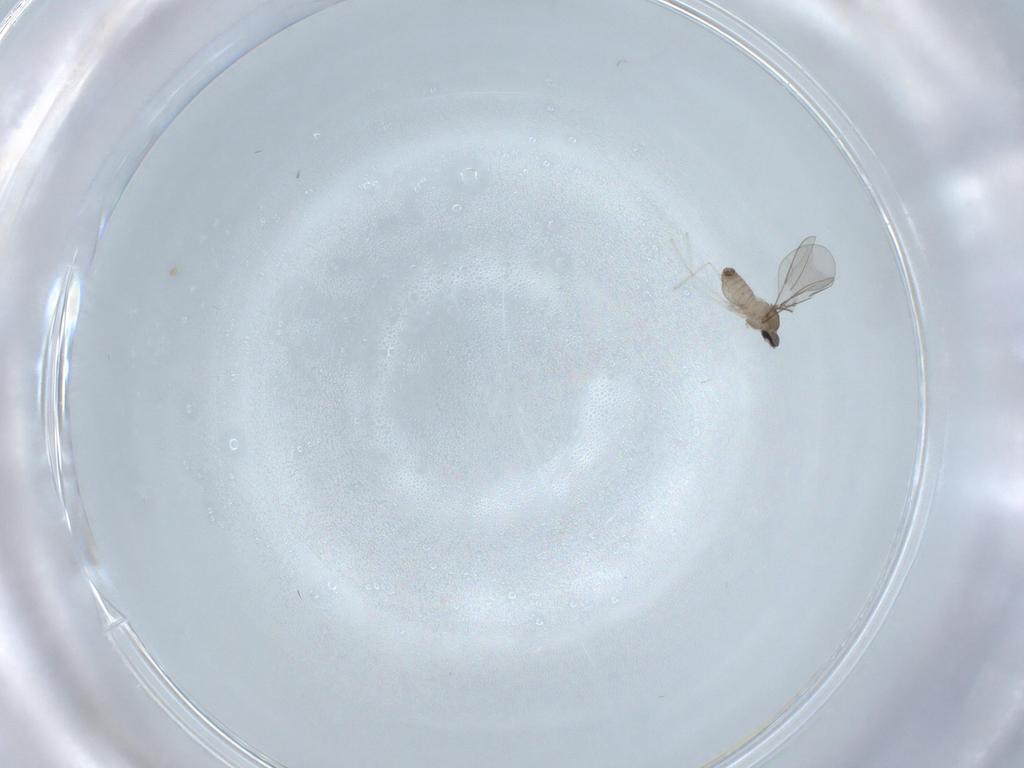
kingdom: Animalia
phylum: Arthropoda
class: Insecta
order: Diptera
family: Cecidomyiidae
